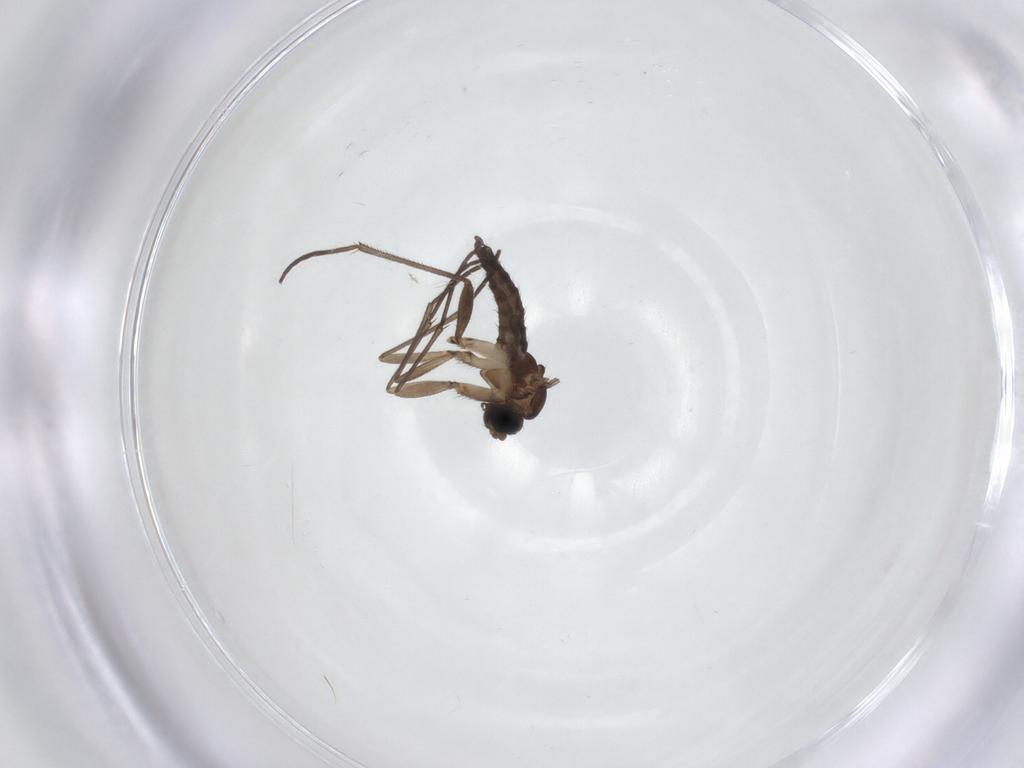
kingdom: Animalia
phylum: Arthropoda
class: Insecta
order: Diptera
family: Sciaridae
